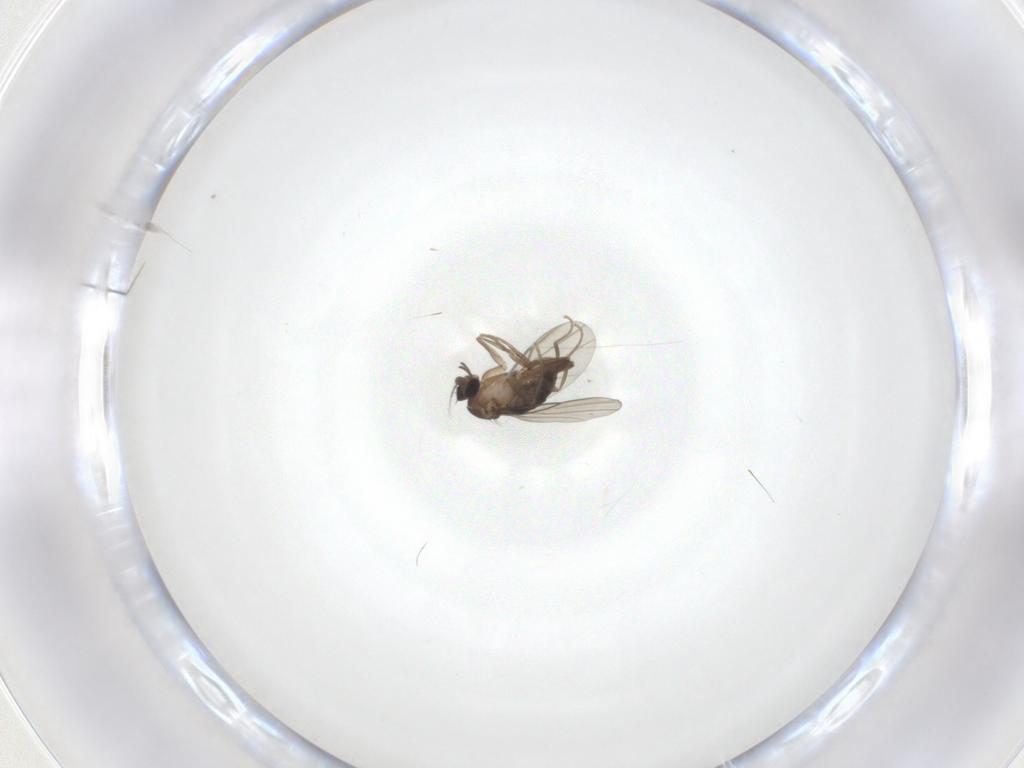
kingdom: Animalia
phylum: Arthropoda
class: Insecta
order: Diptera
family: Phoridae
